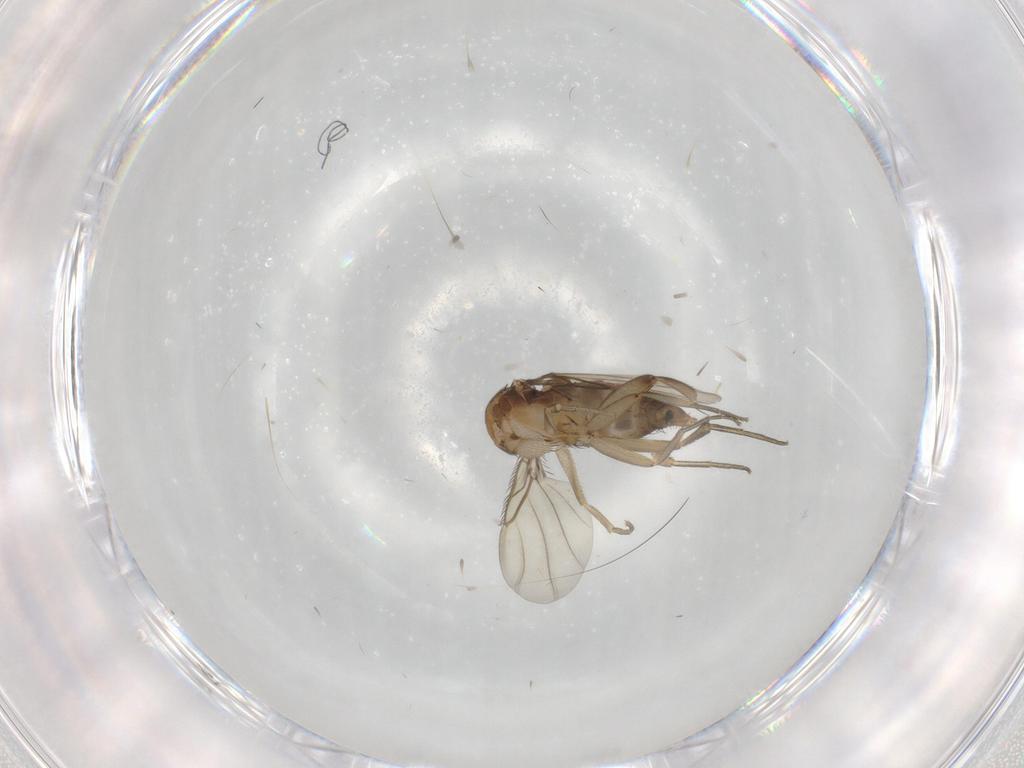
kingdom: Animalia
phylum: Arthropoda
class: Insecta
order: Diptera
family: Phoridae
